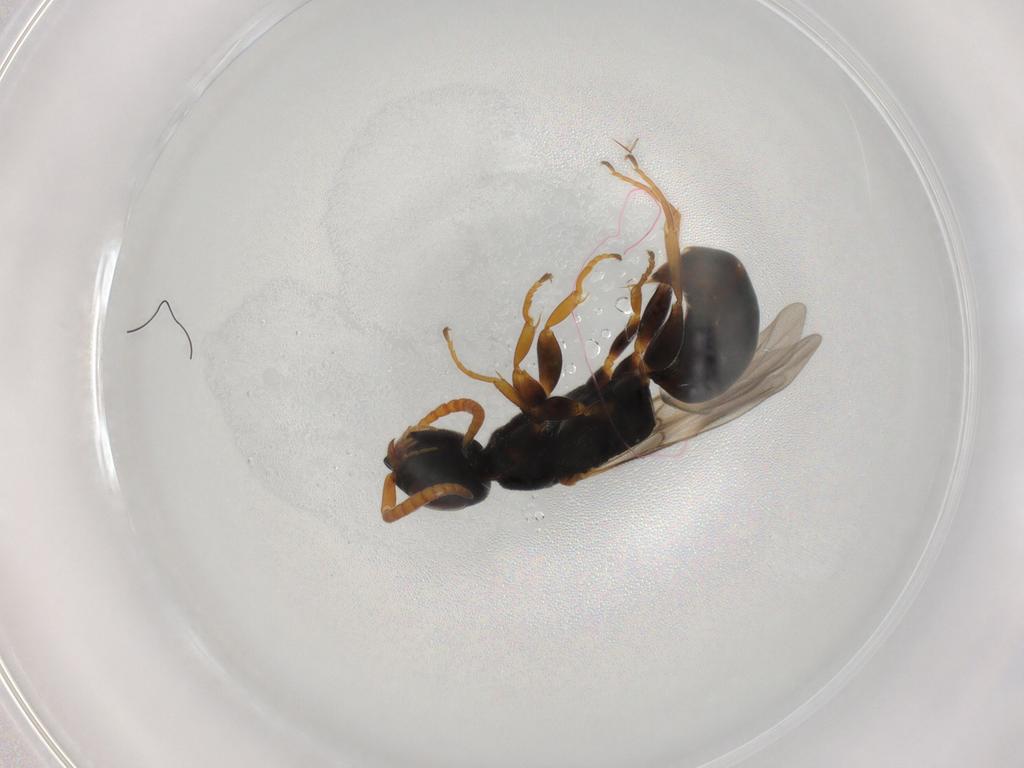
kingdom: Animalia
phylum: Arthropoda
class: Insecta
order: Hymenoptera
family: Bethylidae
